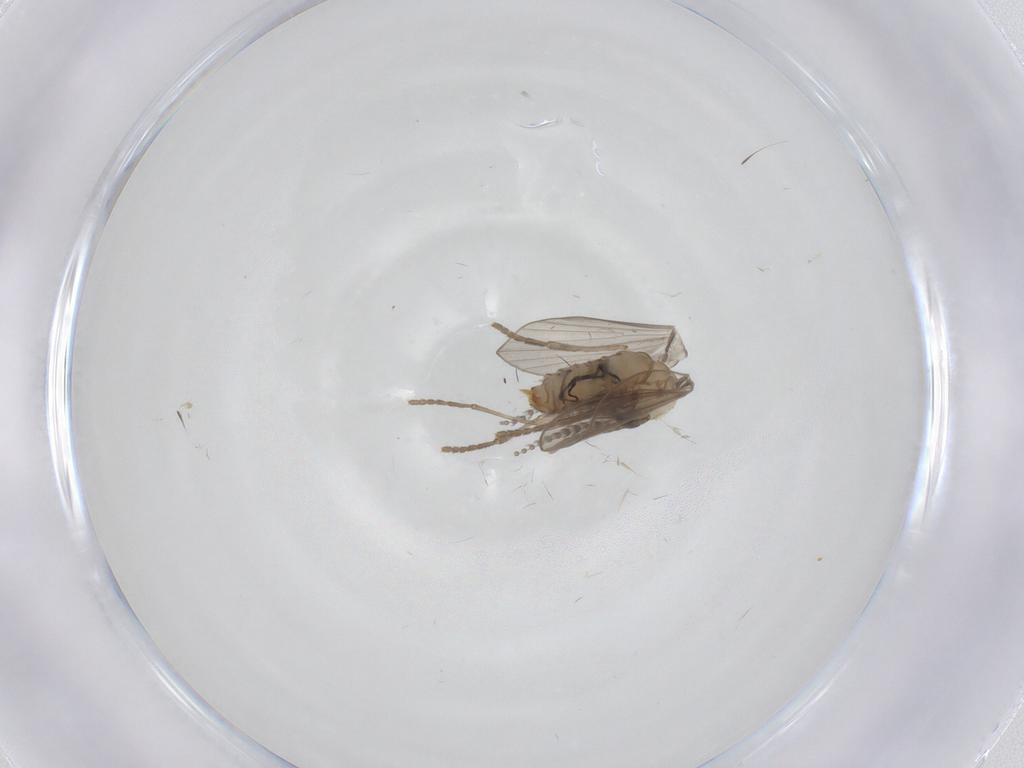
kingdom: Animalia
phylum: Arthropoda
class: Insecta
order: Diptera
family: Psychodidae
